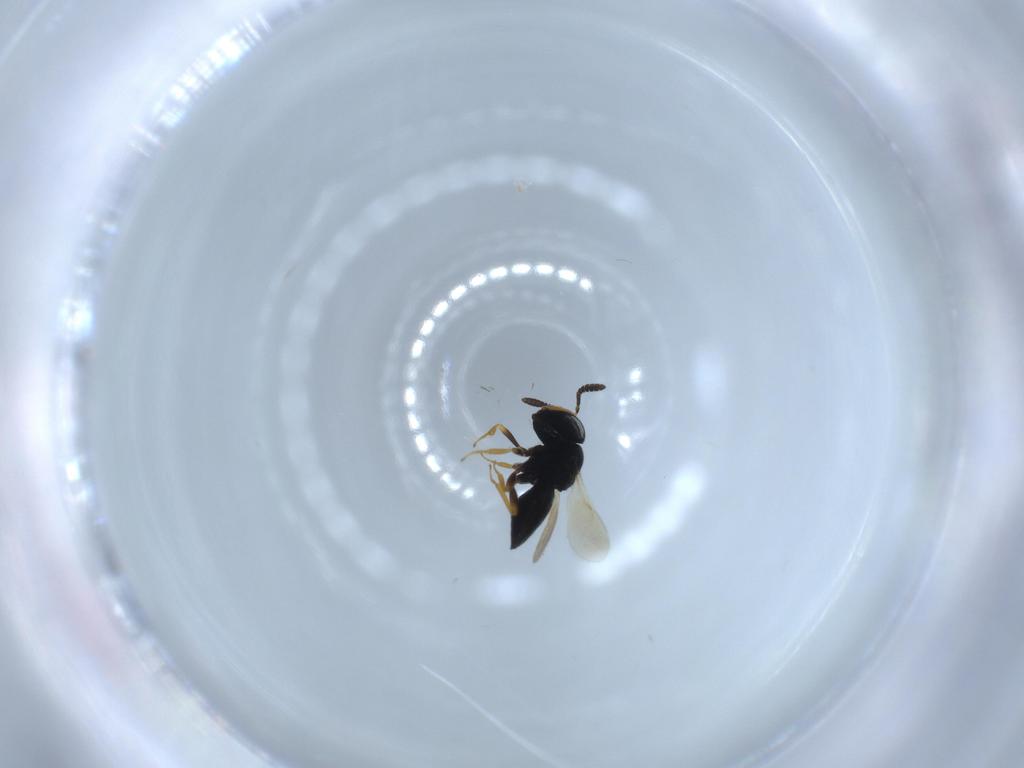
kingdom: Animalia
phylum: Arthropoda
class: Insecta
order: Hymenoptera
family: Scelionidae
